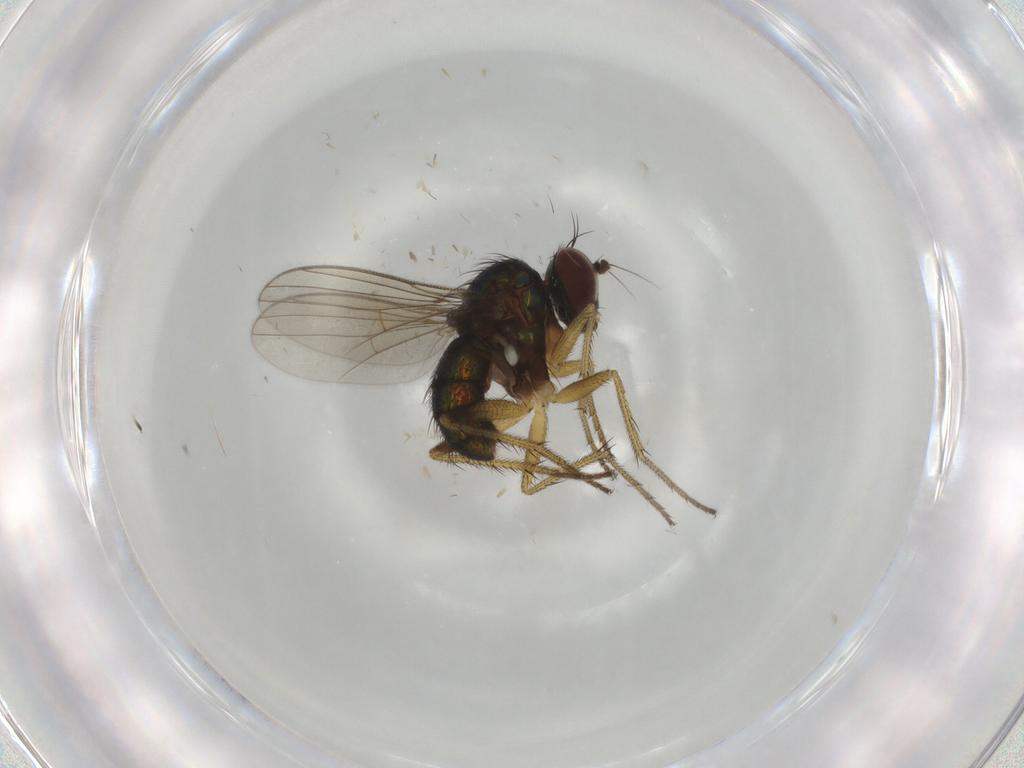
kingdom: Animalia
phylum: Arthropoda
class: Insecta
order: Diptera
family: Dolichopodidae
